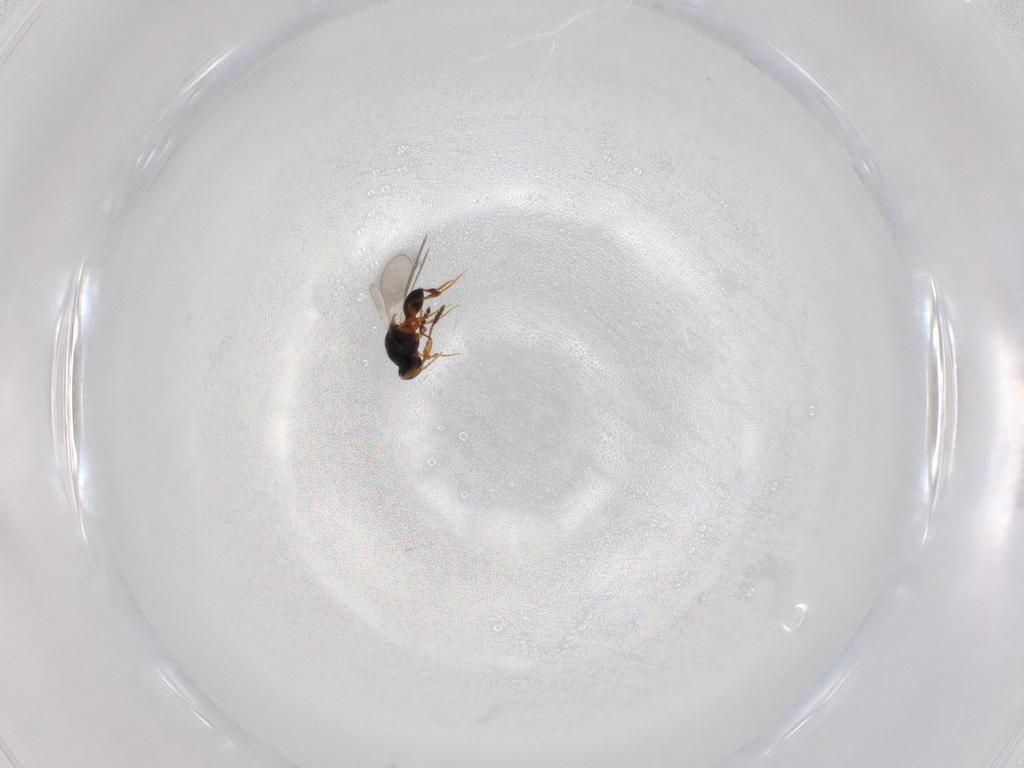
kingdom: Animalia
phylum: Arthropoda
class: Insecta
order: Hymenoptera
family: Platygastridae
